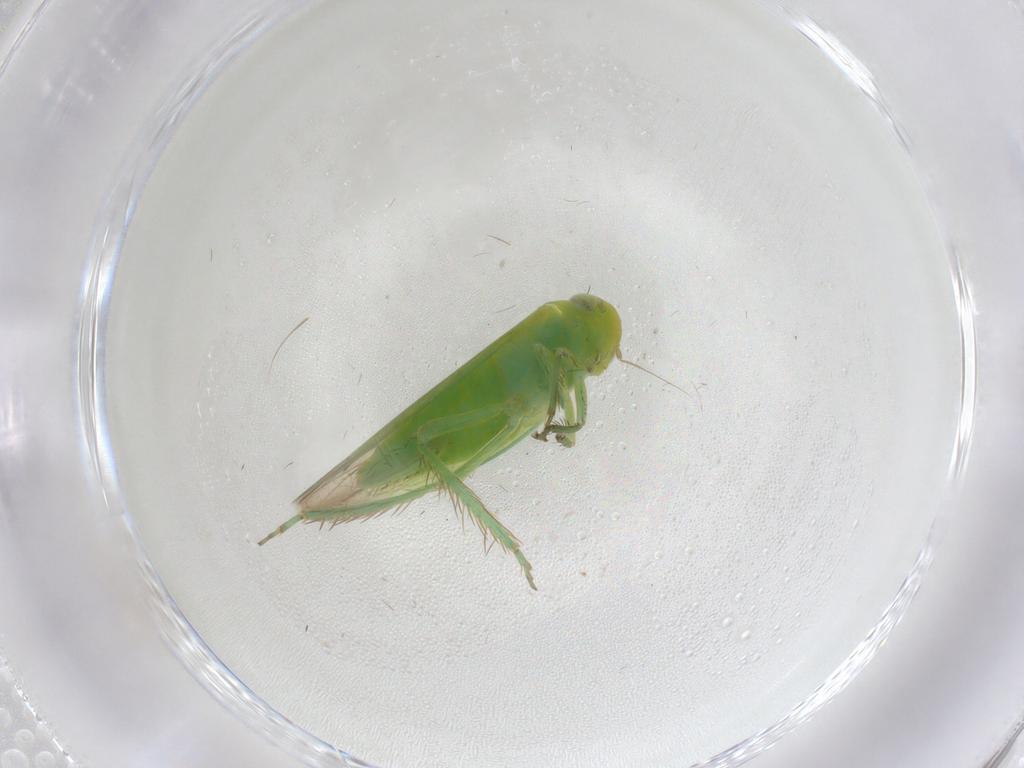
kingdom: Animalia
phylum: Arthropoda
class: Insecta
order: Hemiptera
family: Cicadellidae
